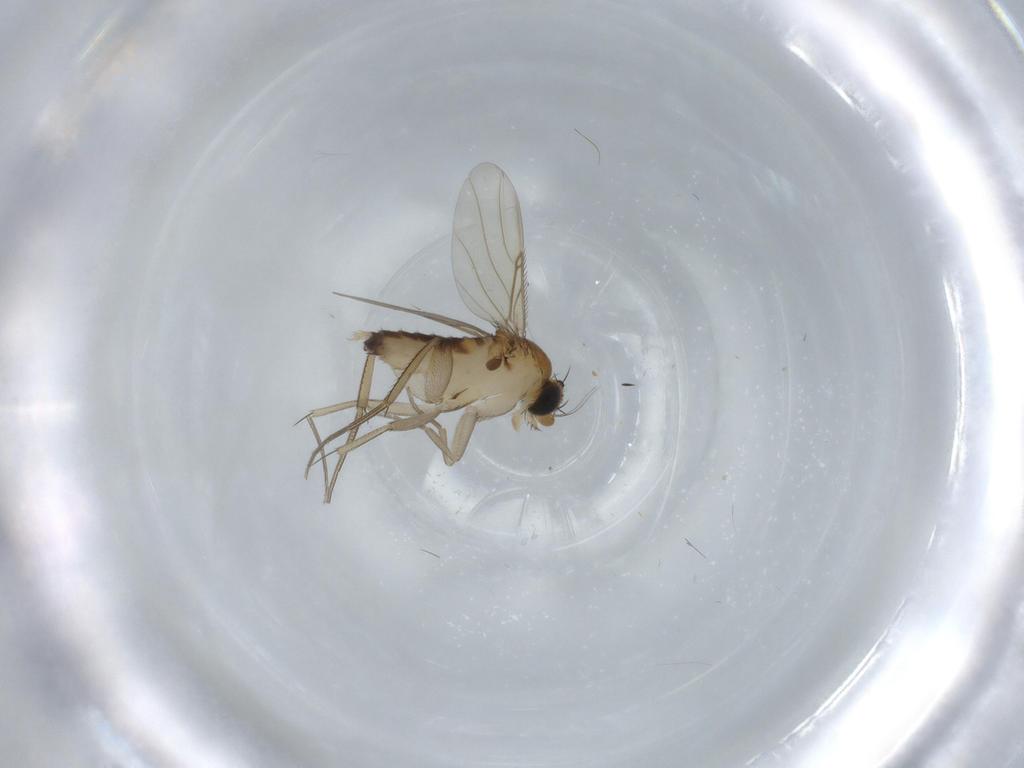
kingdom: Animalia
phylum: Arthropoda
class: Insecta
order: Diptera
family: Phoridae
